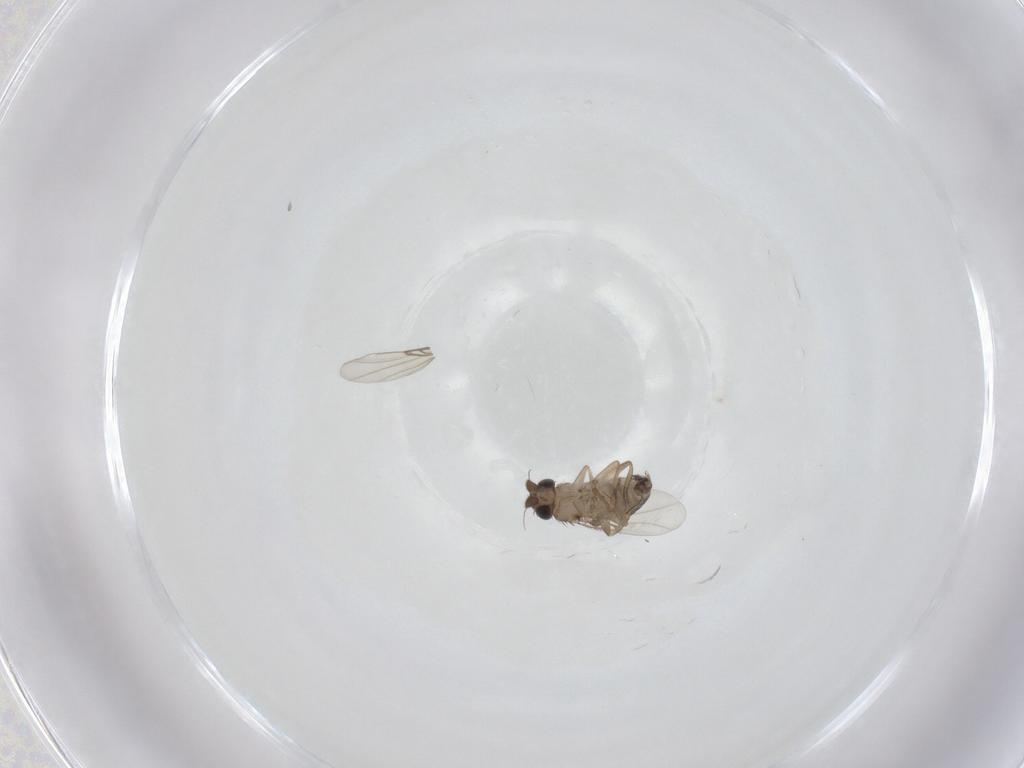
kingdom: Animalia
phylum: Arthropoda
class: Insecta
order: Diptera
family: Phoridae
